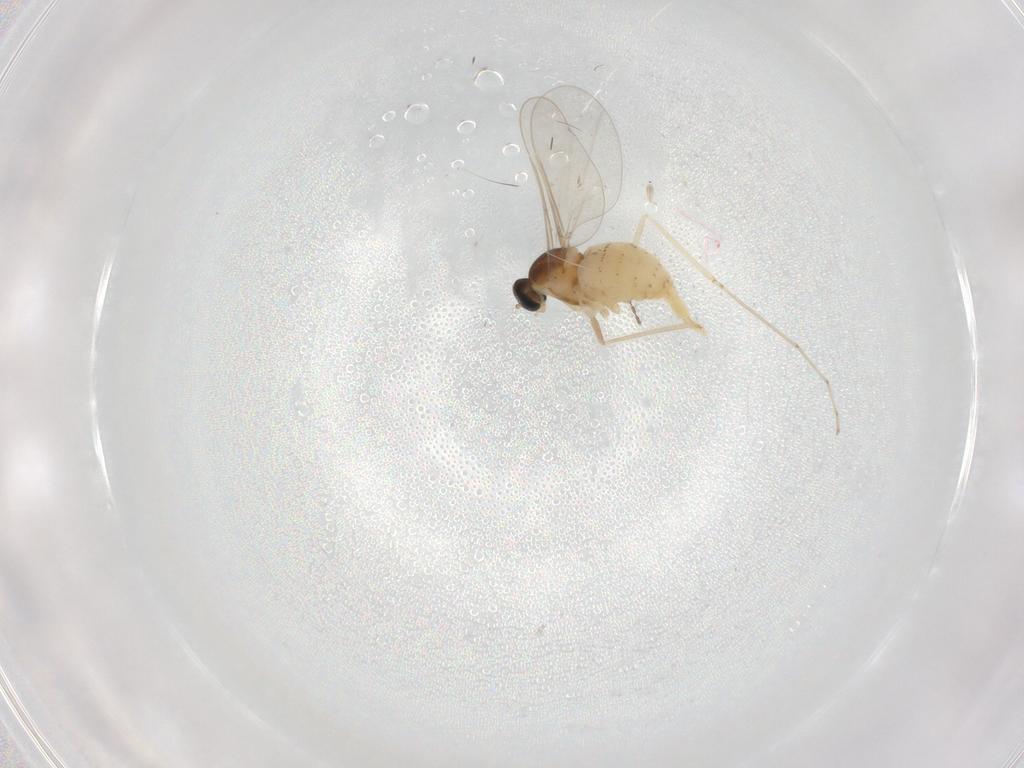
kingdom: Animalia
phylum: Arthropoda
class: Insecta
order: Diptera
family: Cecidomyiidae
